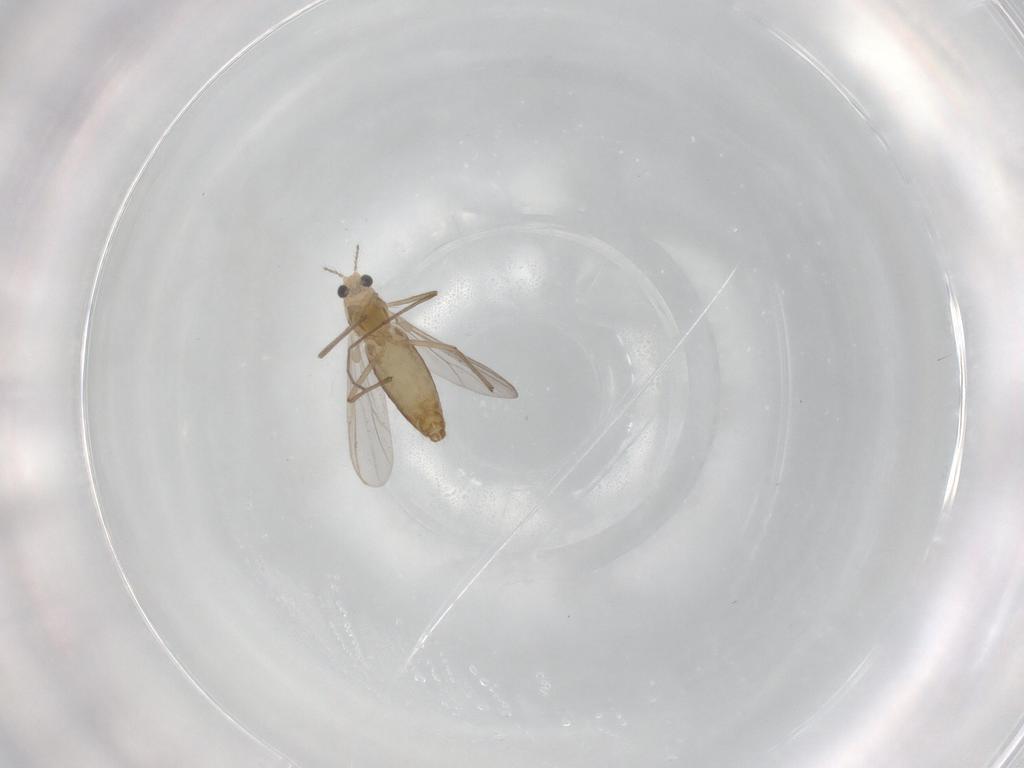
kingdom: Animalia
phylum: Arthropoda
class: Insecta
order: Diptera
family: Chironomidae
